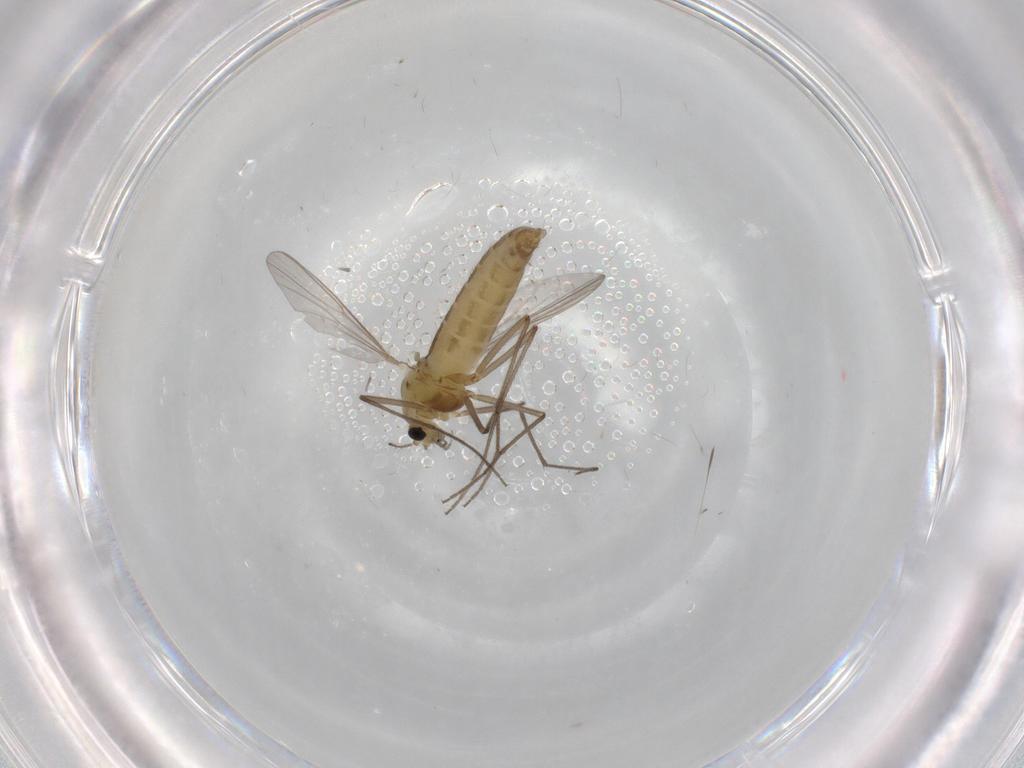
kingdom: Animalia
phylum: Arthropoda
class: Insecta
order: Diptera
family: Chironomidae
